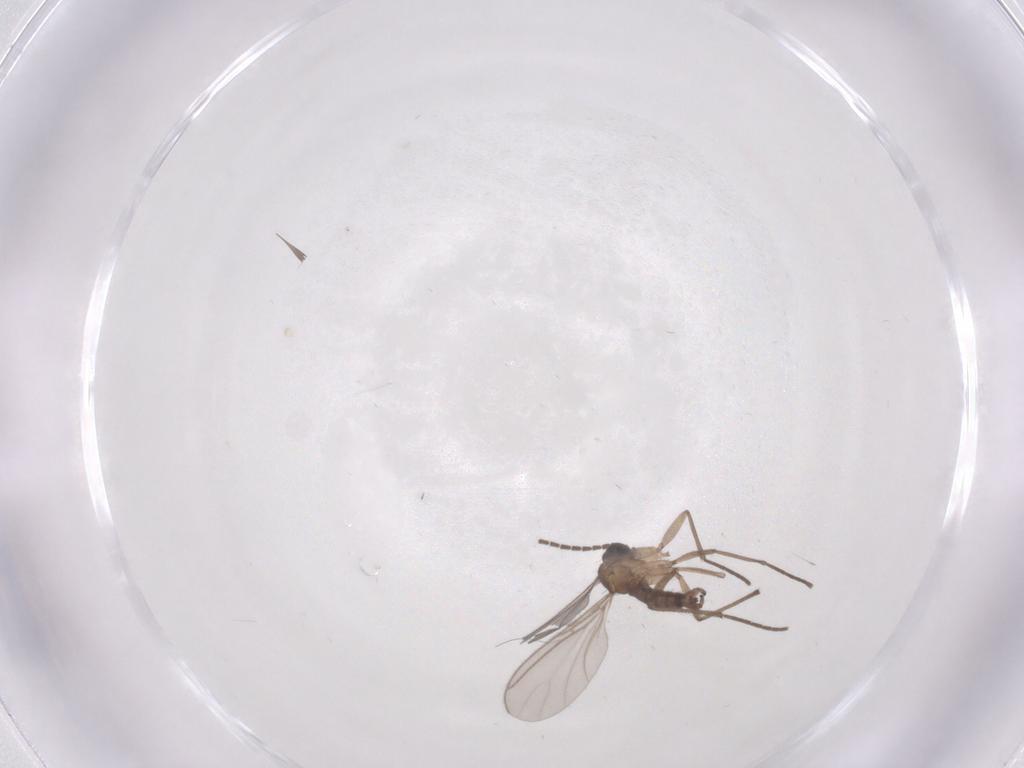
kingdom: Animalia
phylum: Arthropoda
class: Insecta
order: Diptera
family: Sciaridae
